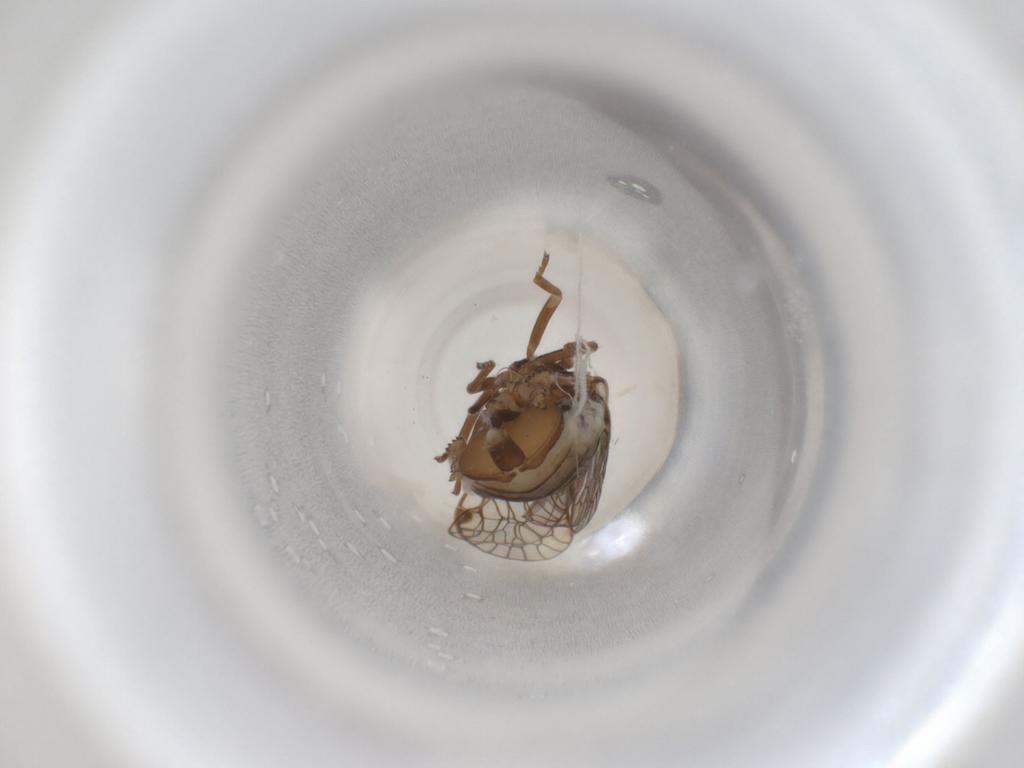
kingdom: Animalia
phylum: Arthropoda
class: Insecta
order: Hemiptera
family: Cixiidae
